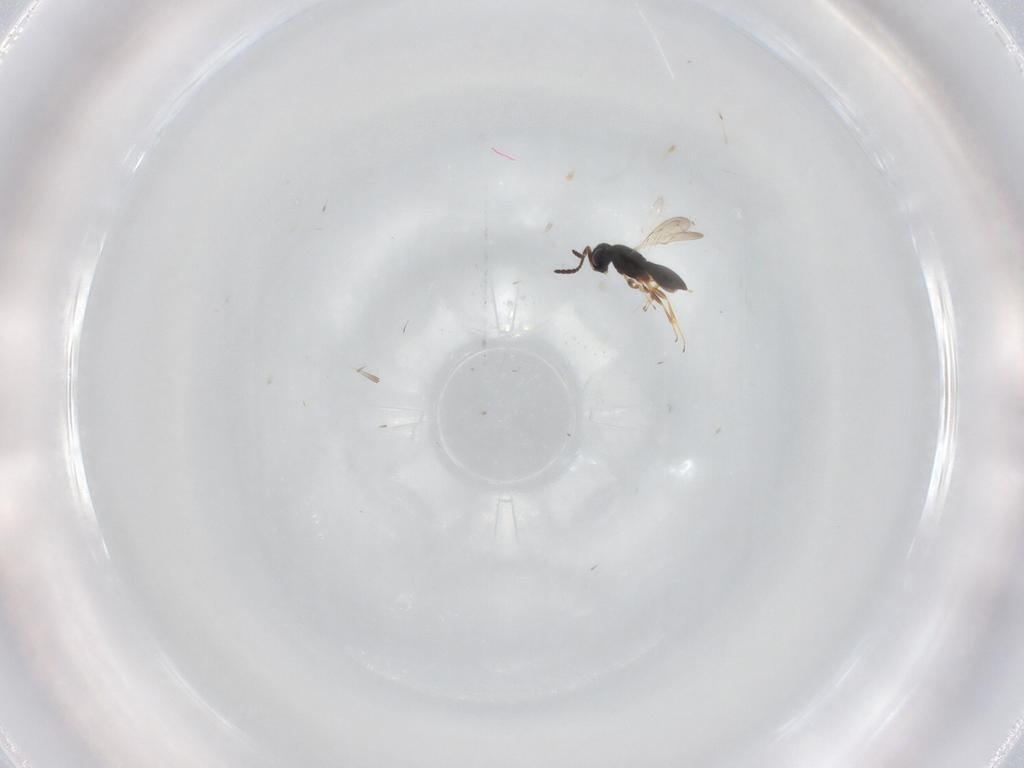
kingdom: Animalia
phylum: Arthropoda
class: Insecta
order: Hymenoptera
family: Scelionidae
